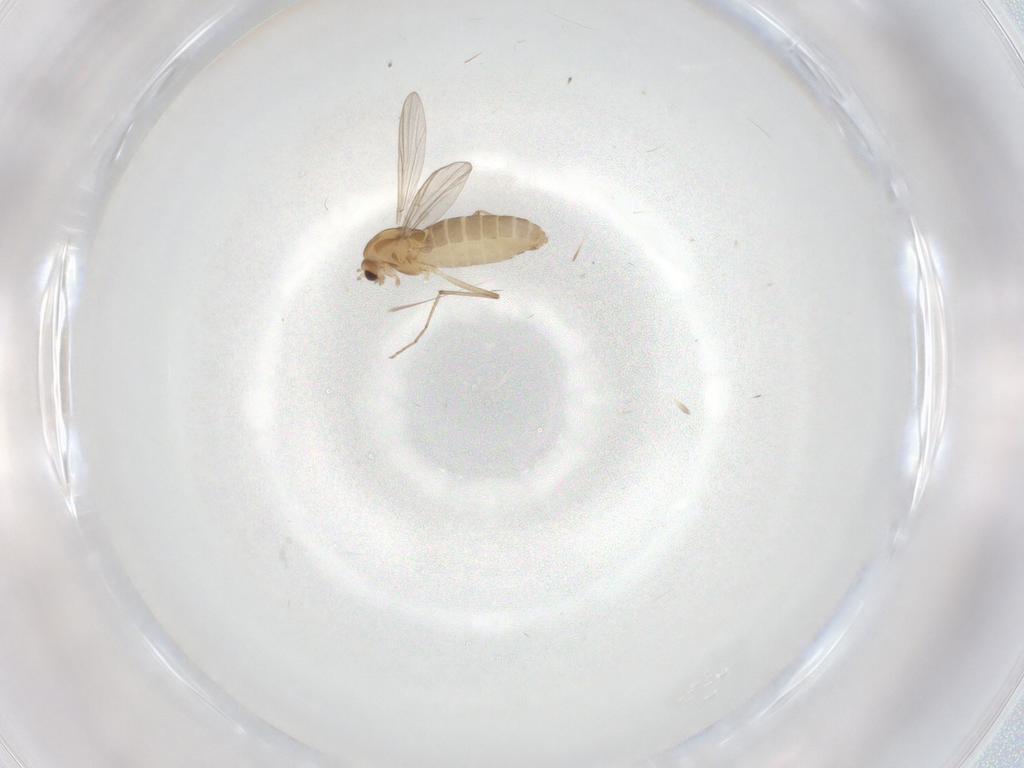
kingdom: Animalia
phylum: Arthropoda
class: Insecta
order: Diptera
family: Chironomidae
